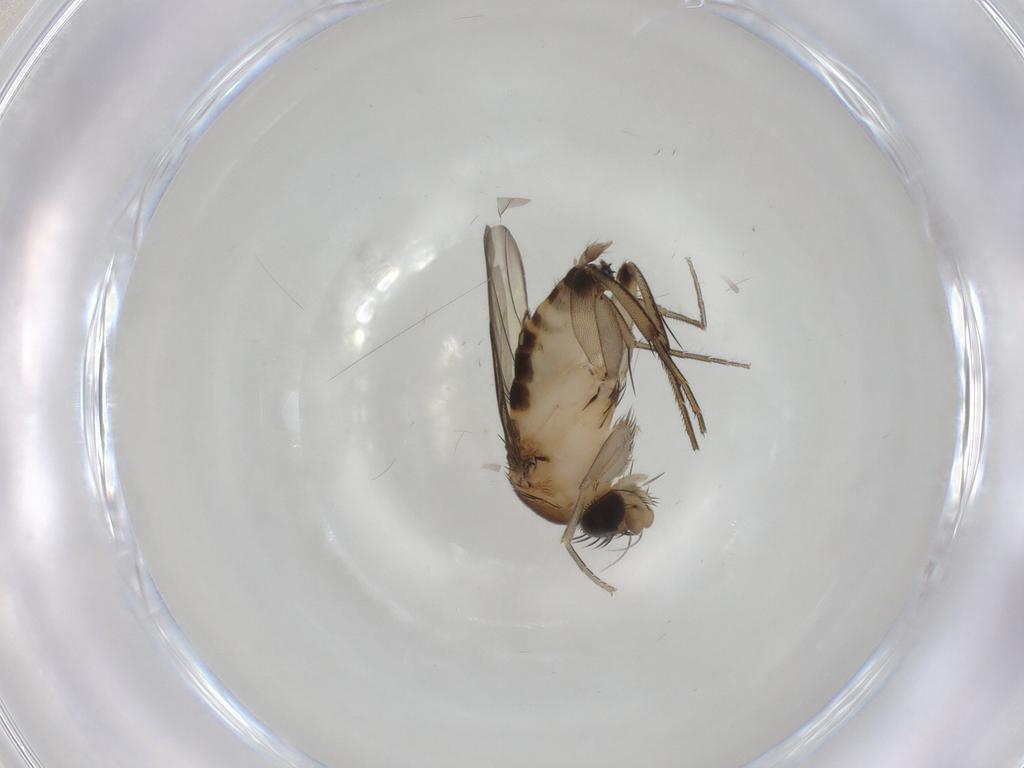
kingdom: Animalia
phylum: Arthropoda
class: Insecta
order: Diptera
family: Phoridae
